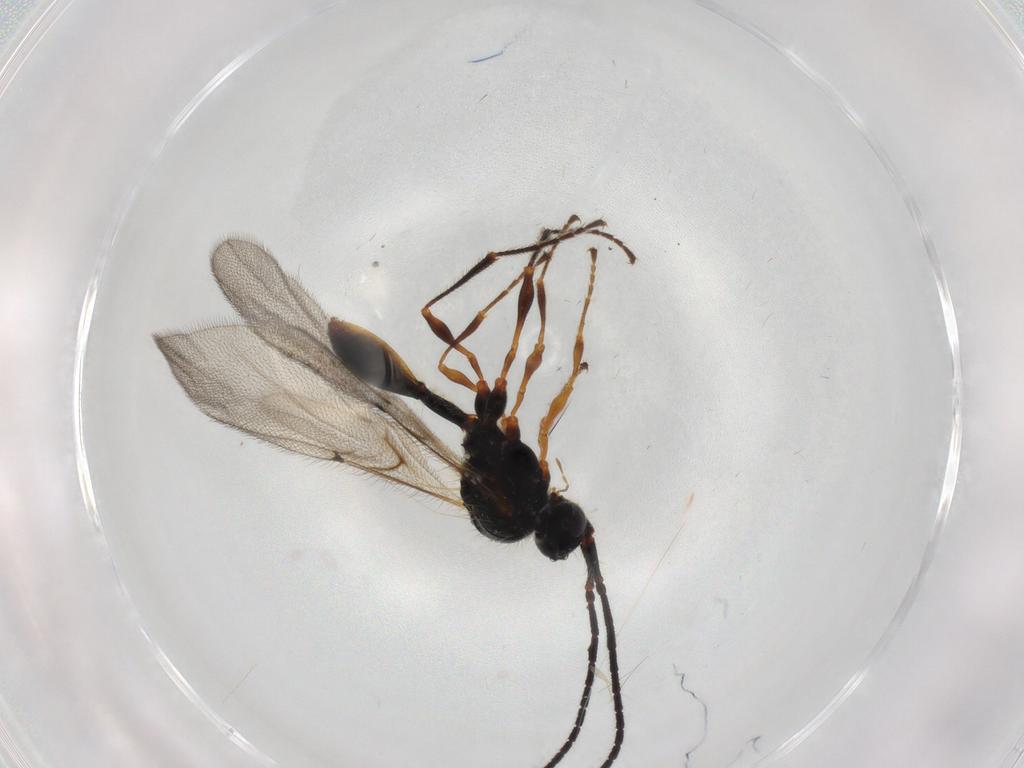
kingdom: Animalia
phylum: Arthropoda
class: Insecta
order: Hymenoptera
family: Diapriidae
